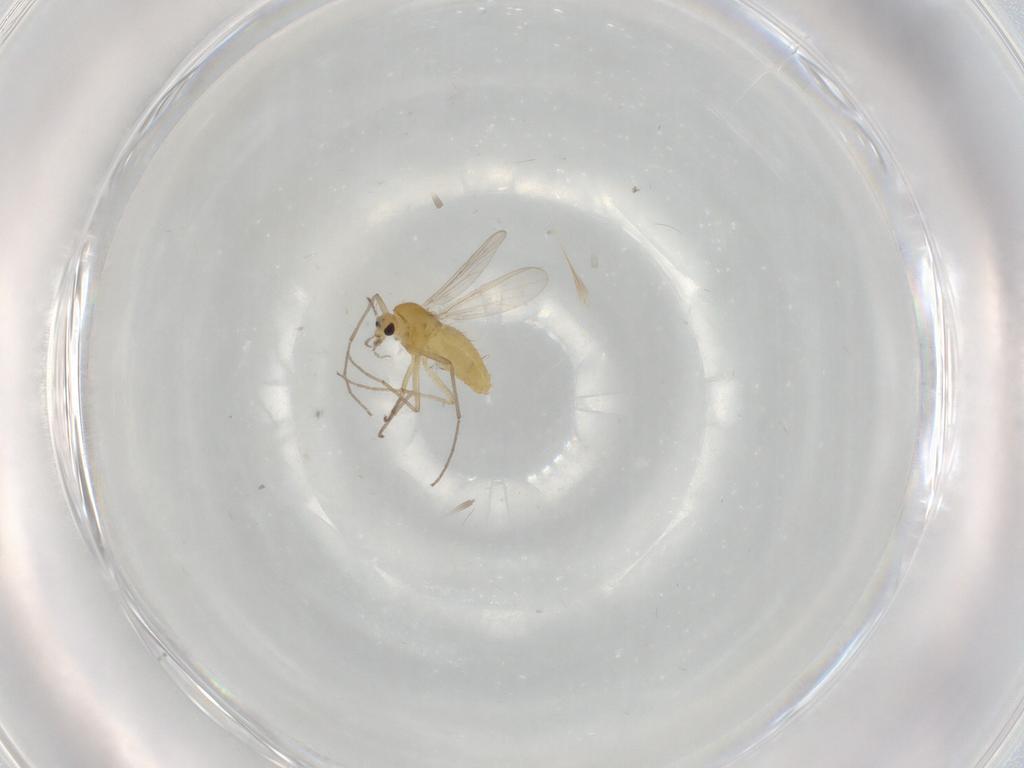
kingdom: Animalia
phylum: Arthropoda
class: Insecta
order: Diptera
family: Chironomidae
